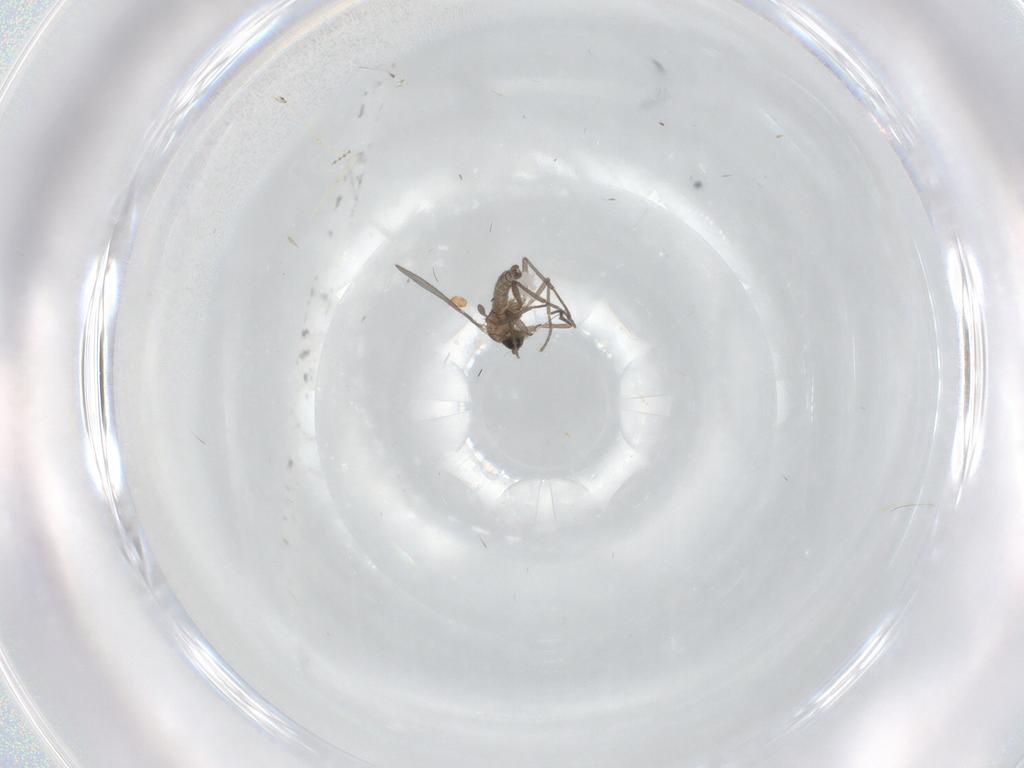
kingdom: Animalia
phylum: Arthropoda
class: Insecta
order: Diptera
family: Sciaridae
